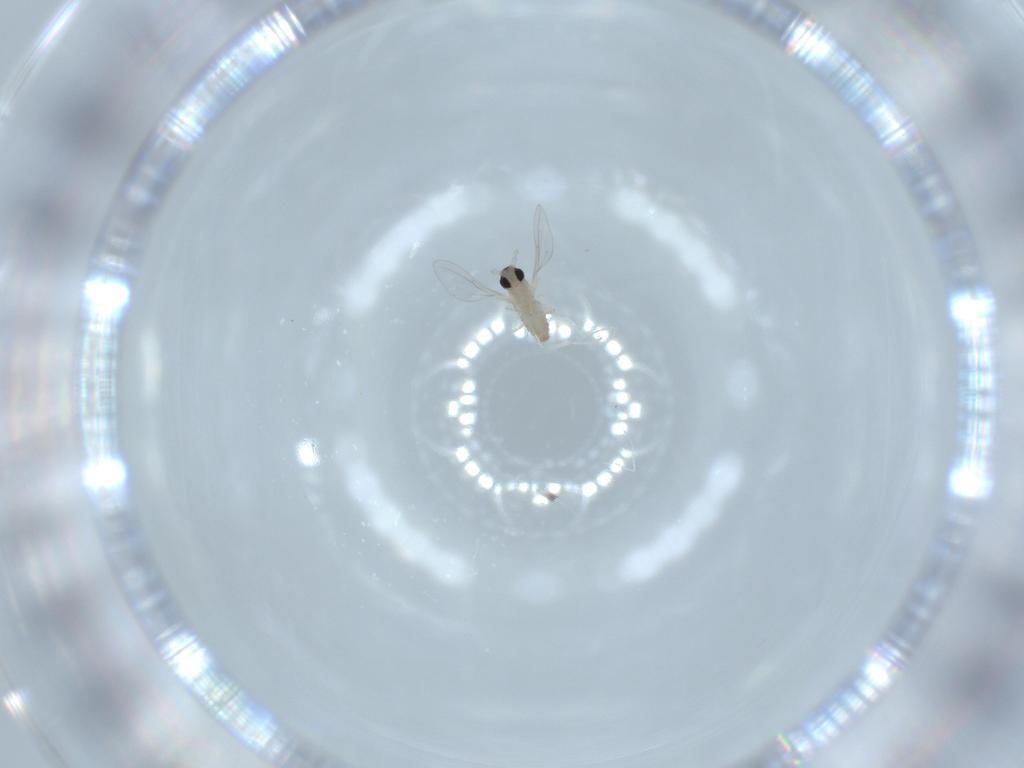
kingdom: Animalia
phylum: Arthropoda
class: Insecta
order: Diptera
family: Cecidomyiidae
